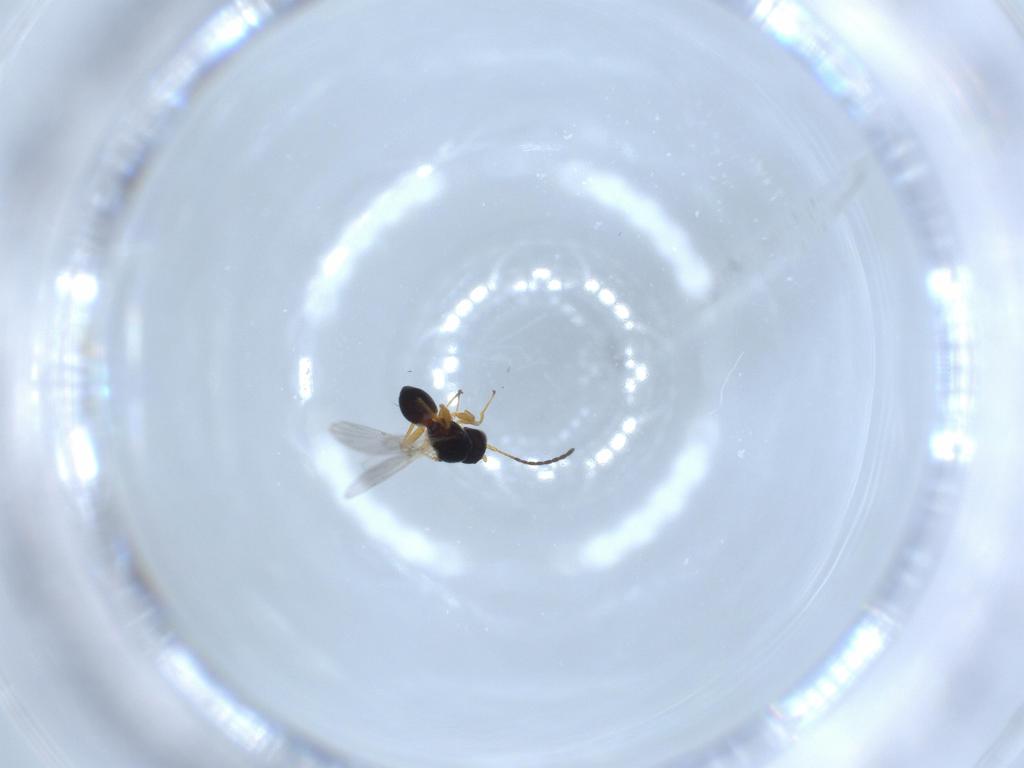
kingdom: Animalia
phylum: Arthropoda
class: Insecta
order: Hymenoptera
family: Figitidae
